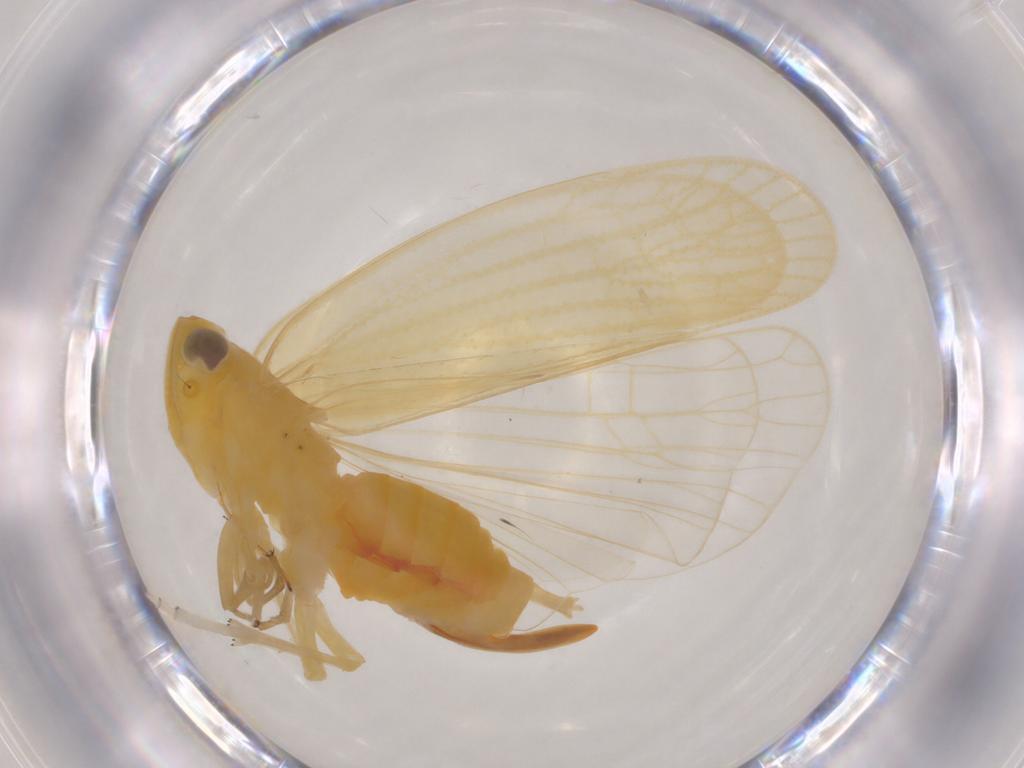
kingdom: Animalia
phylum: Arthropoda
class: Insecta
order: Hemiptera
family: Cixiidae
